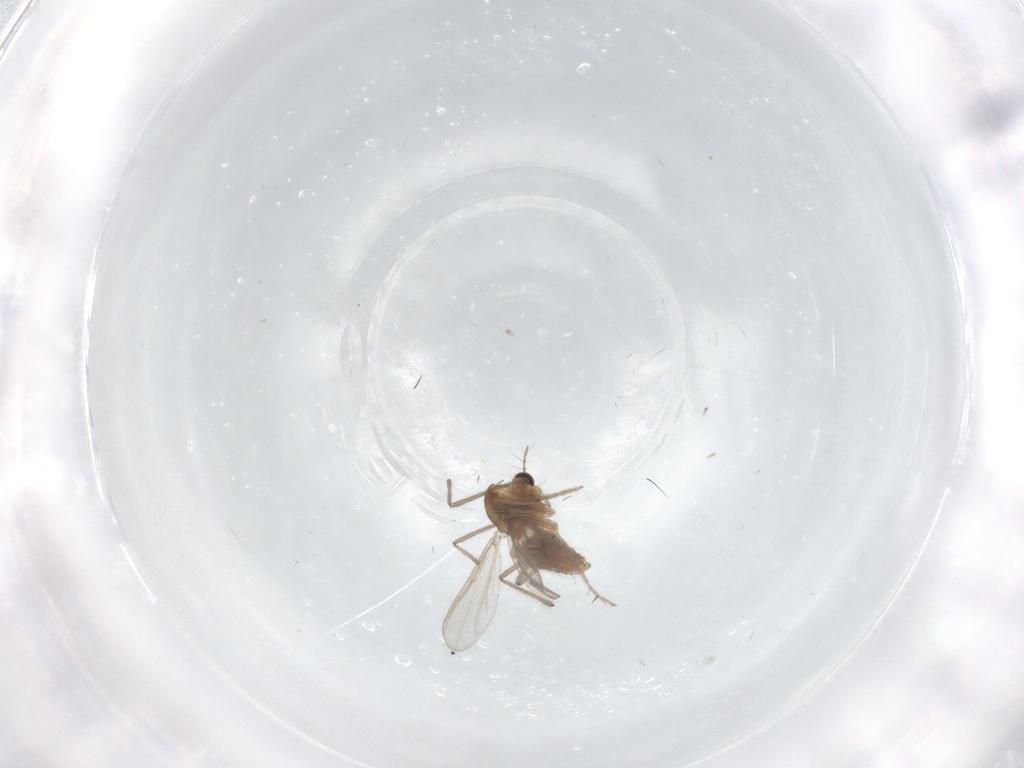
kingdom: Animalia
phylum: Arthropoda
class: Insecta
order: Diptera
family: Chironomidae
